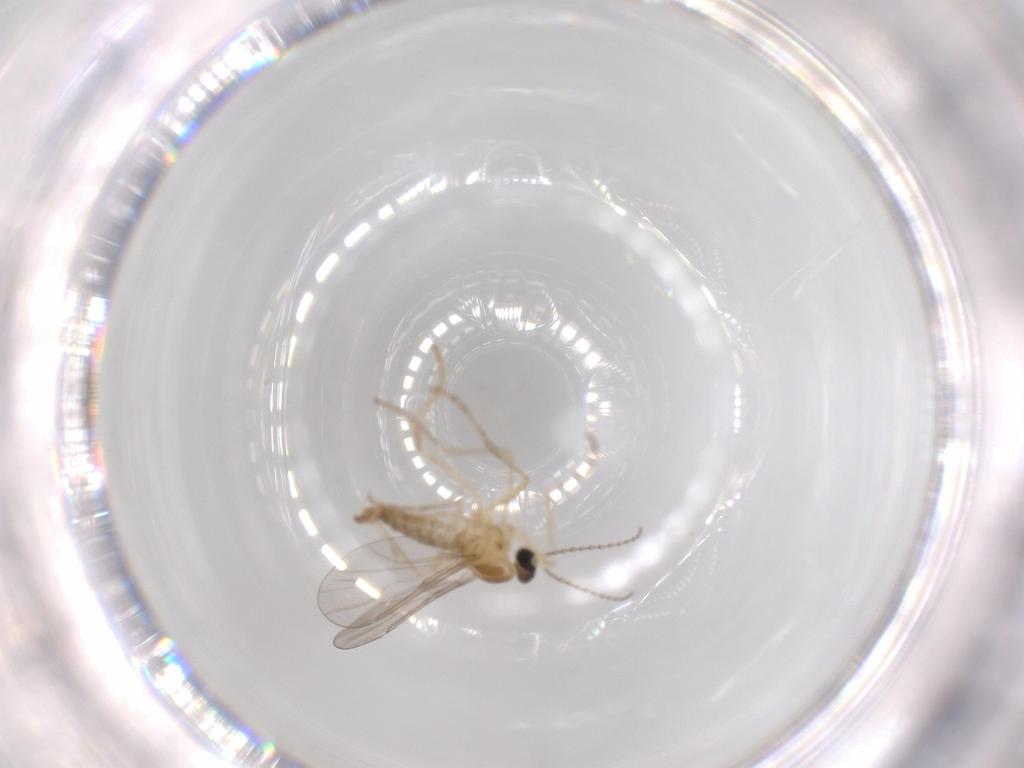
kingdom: Animalia
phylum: Arthropoda
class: Insecta
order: Diptera
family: Cecidomyiidae
